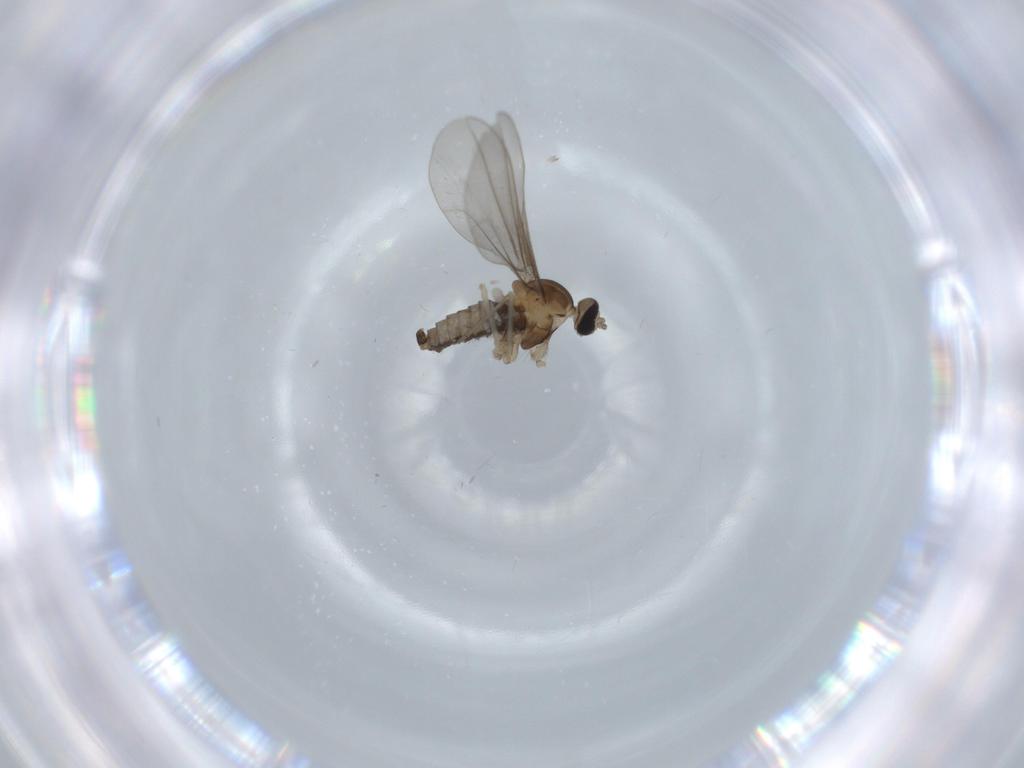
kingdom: Animalia
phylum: Arthropoda
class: Insecta
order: Diptera
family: Cecidomyiidae
